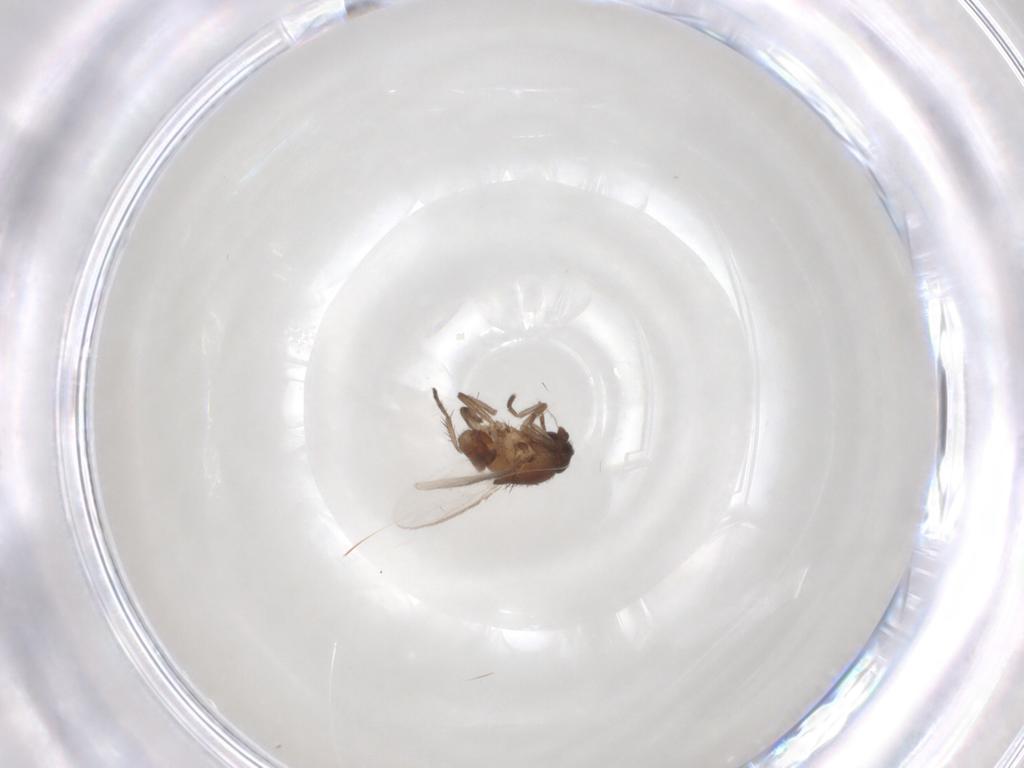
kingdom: Animalia
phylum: Arthropoda
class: Insecta
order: Diptera
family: Sphaeroceridae
